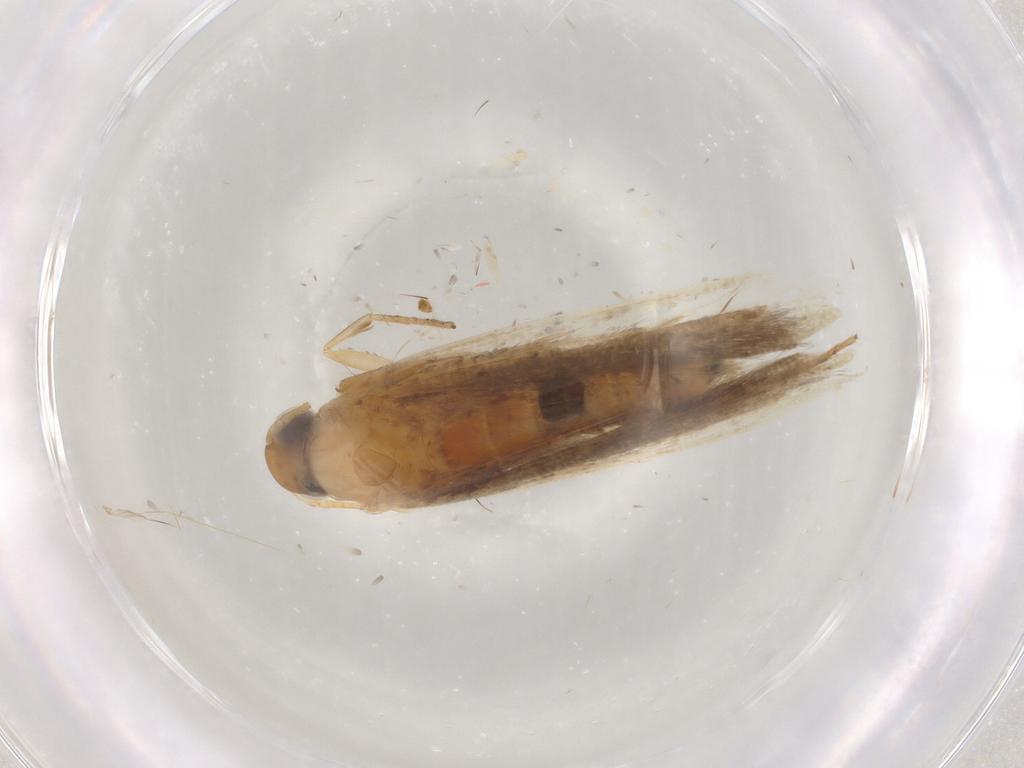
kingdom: Animalia
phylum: Arthropoda
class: Insecta
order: Lepidoptera
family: Gelechiidae
